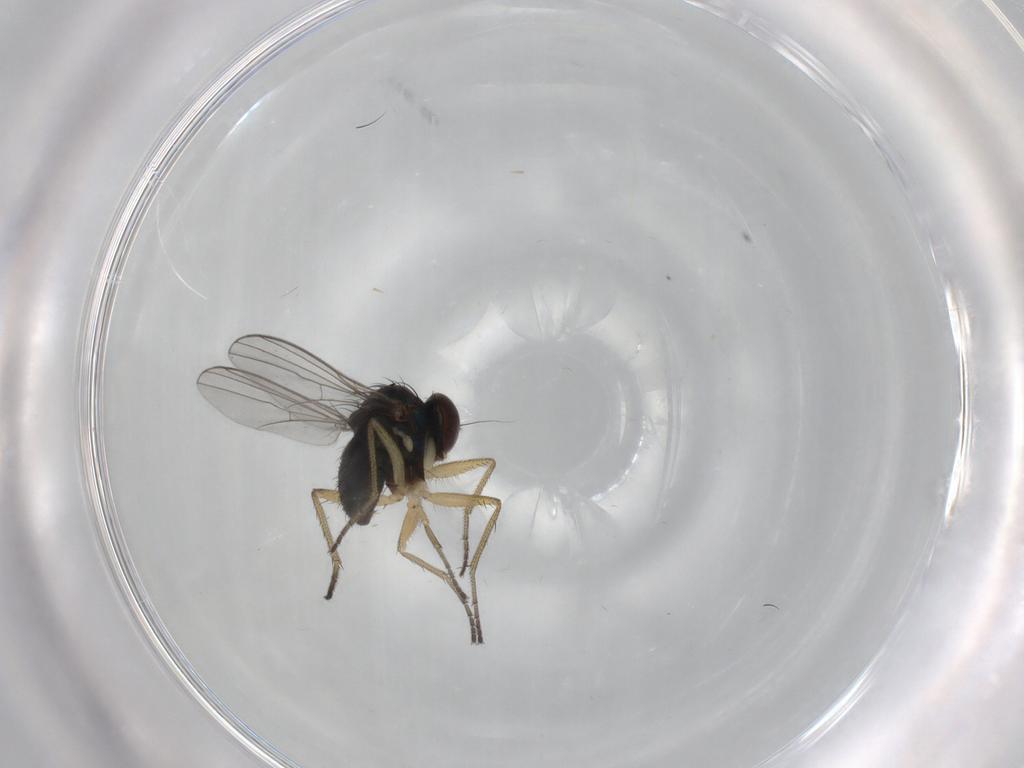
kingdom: Animalia
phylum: Arthropoda
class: Insecta
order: Diptera
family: Dolichopodidae
